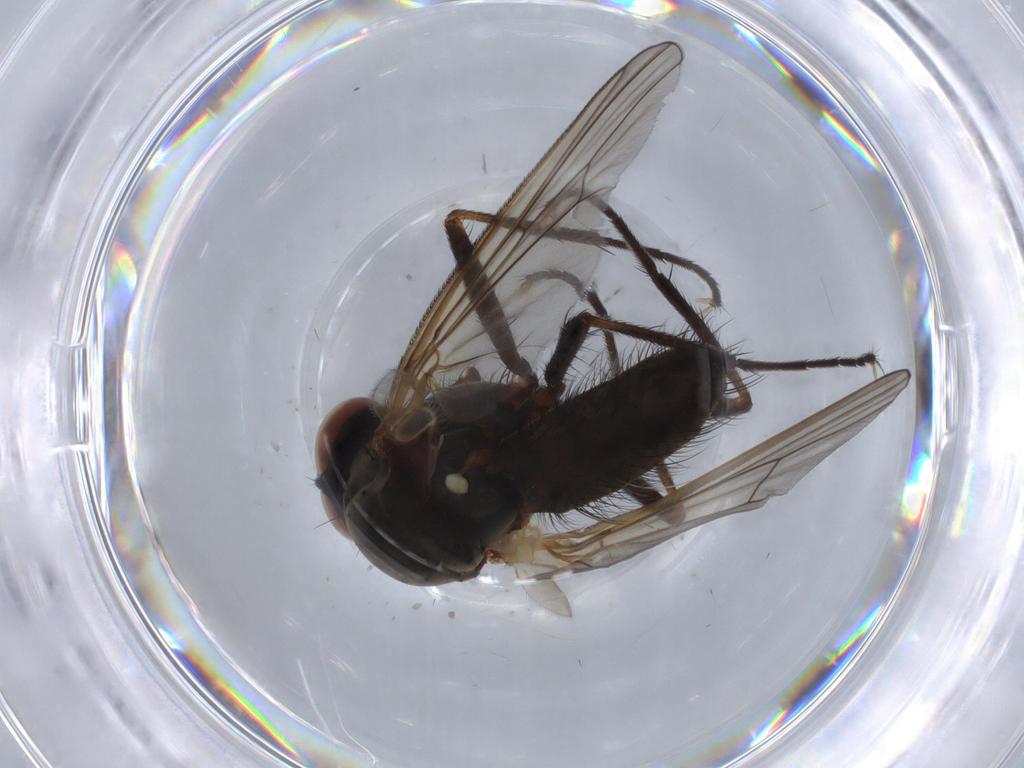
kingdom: Animalia
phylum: Arthropoda
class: Insecta
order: Diptera
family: Anthomyiidae
